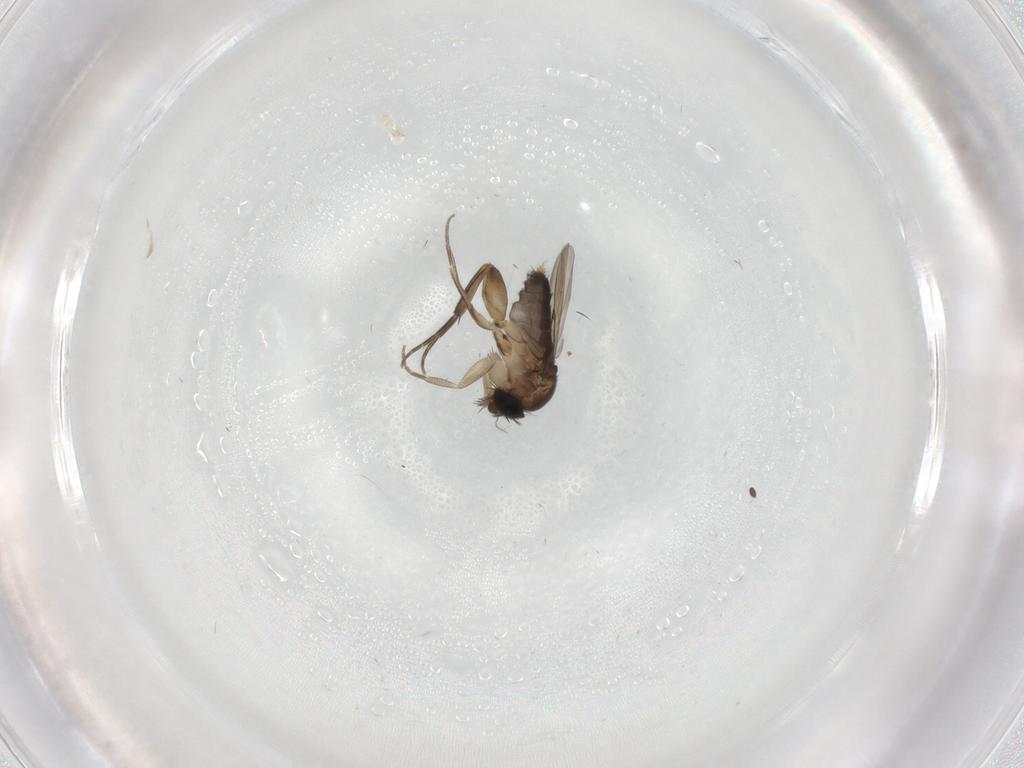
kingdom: Animalia
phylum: Arthropoda
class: Insecta
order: Diptera
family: Phoridae
